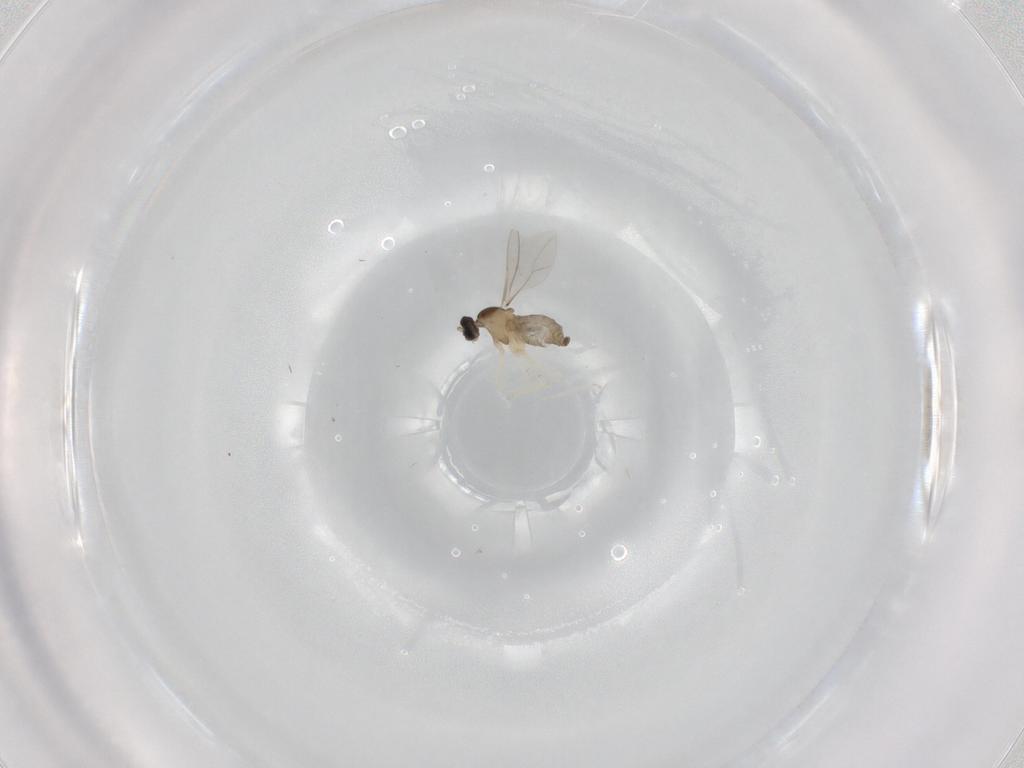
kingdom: Animalia
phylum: Arthropoda
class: Insecta
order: Diptera
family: Cecidomyiidae
